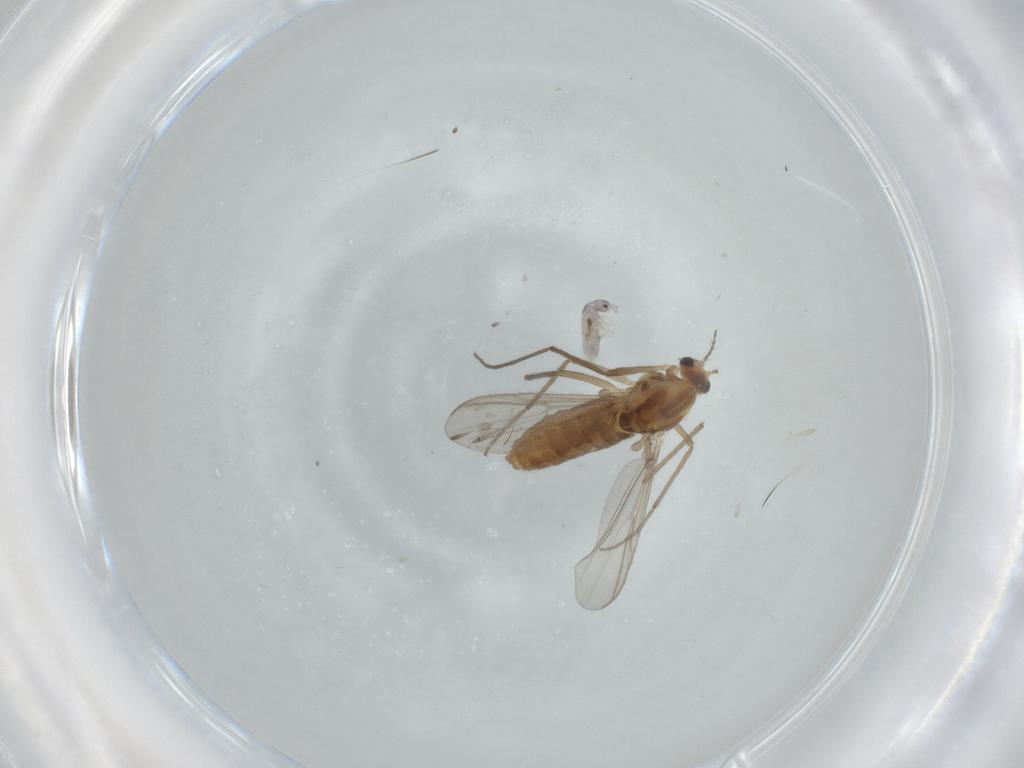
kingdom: Animalia
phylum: Arthropoda
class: Insecta
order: Diptera
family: Chironomidae
